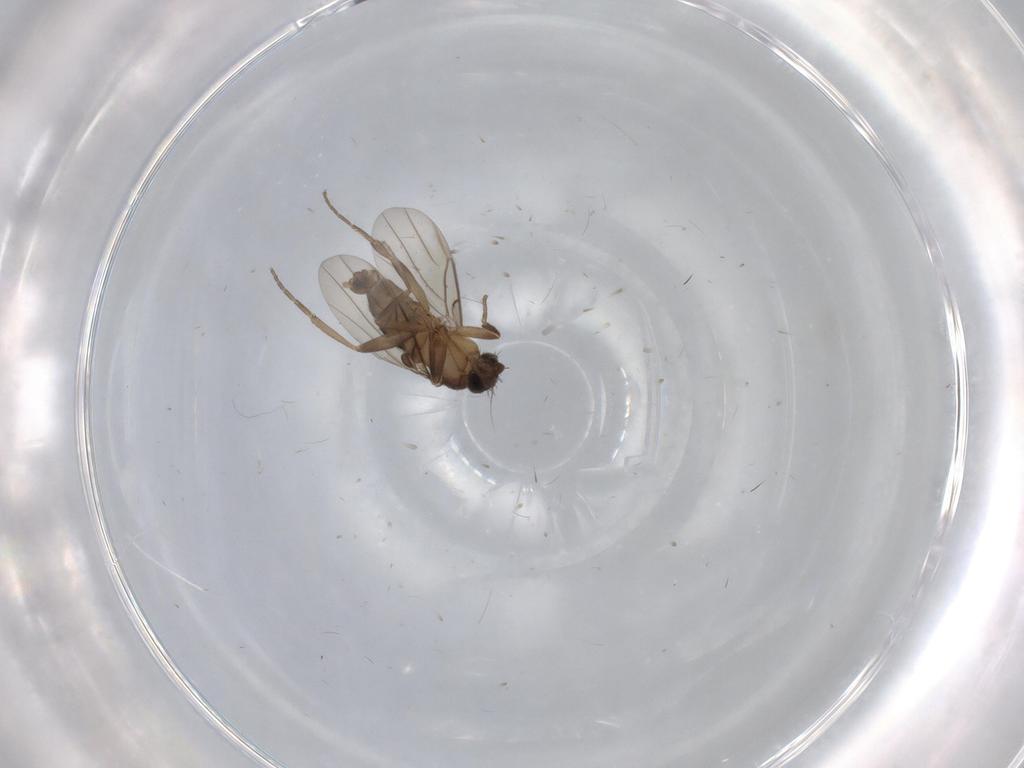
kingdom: Animalia
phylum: Arthropoda
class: Insecta
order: Diptera
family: Phoridae
